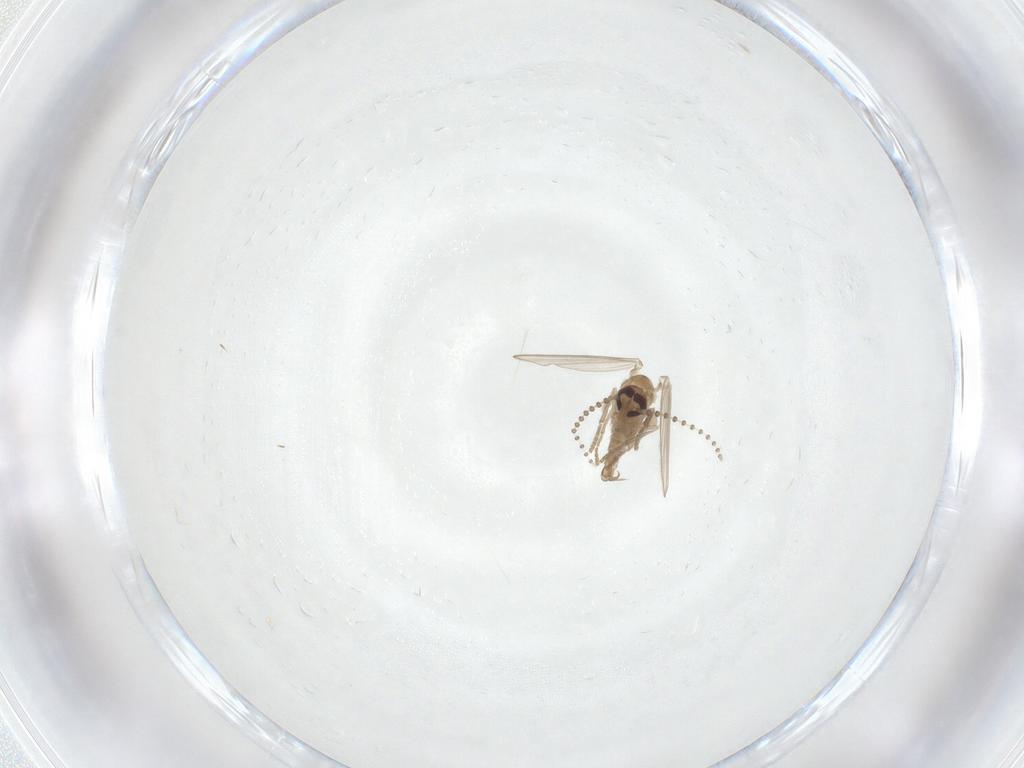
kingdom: Animalia
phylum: Arthropoda
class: Insecta
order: Diptera
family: Psychodidae
